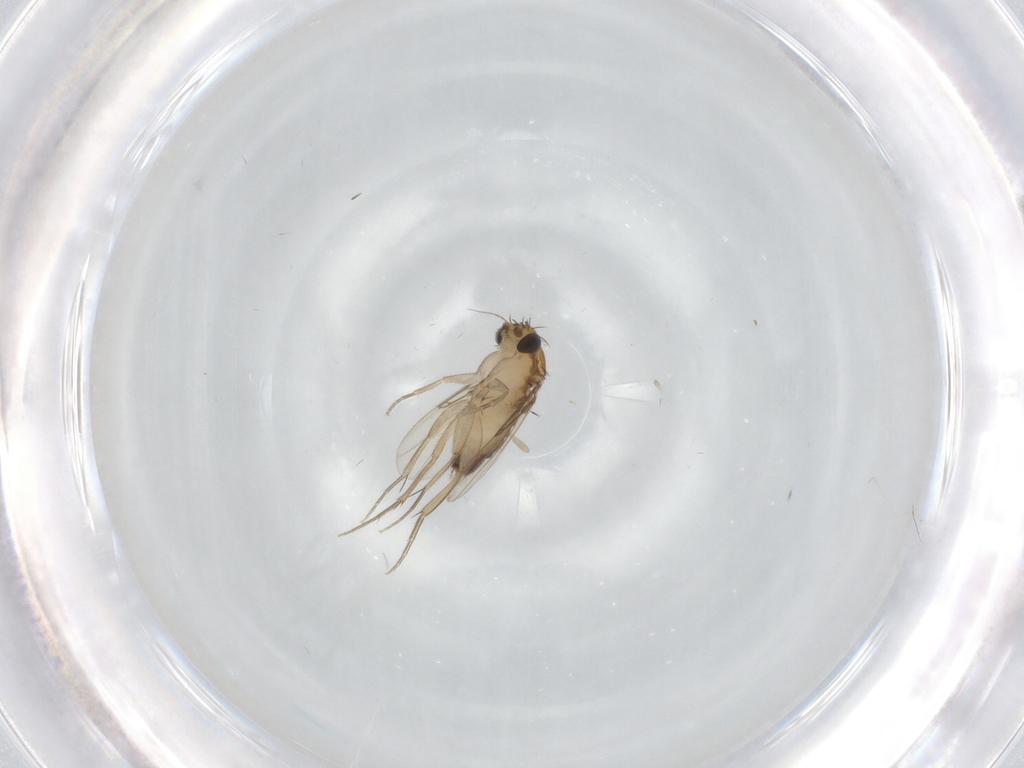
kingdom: Animalia
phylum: Arthropoda
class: Insecta
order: Diptera
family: Phoridae
